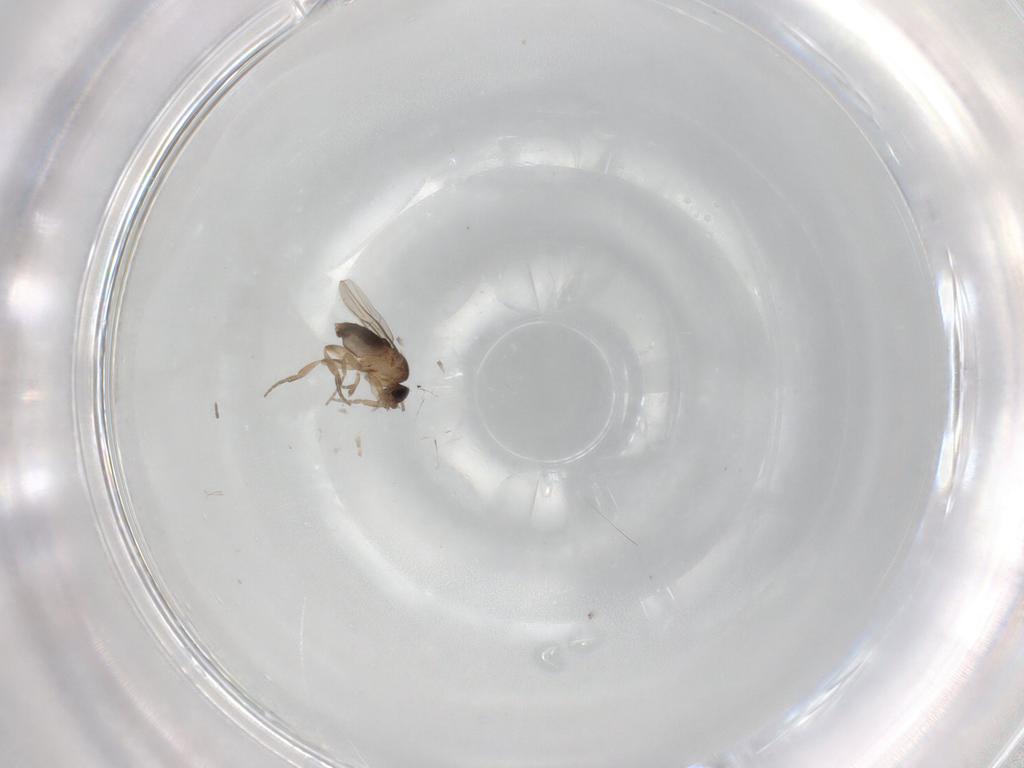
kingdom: Animalia
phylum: Arthropoda
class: Insecta
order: Diptera
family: Phoridae
